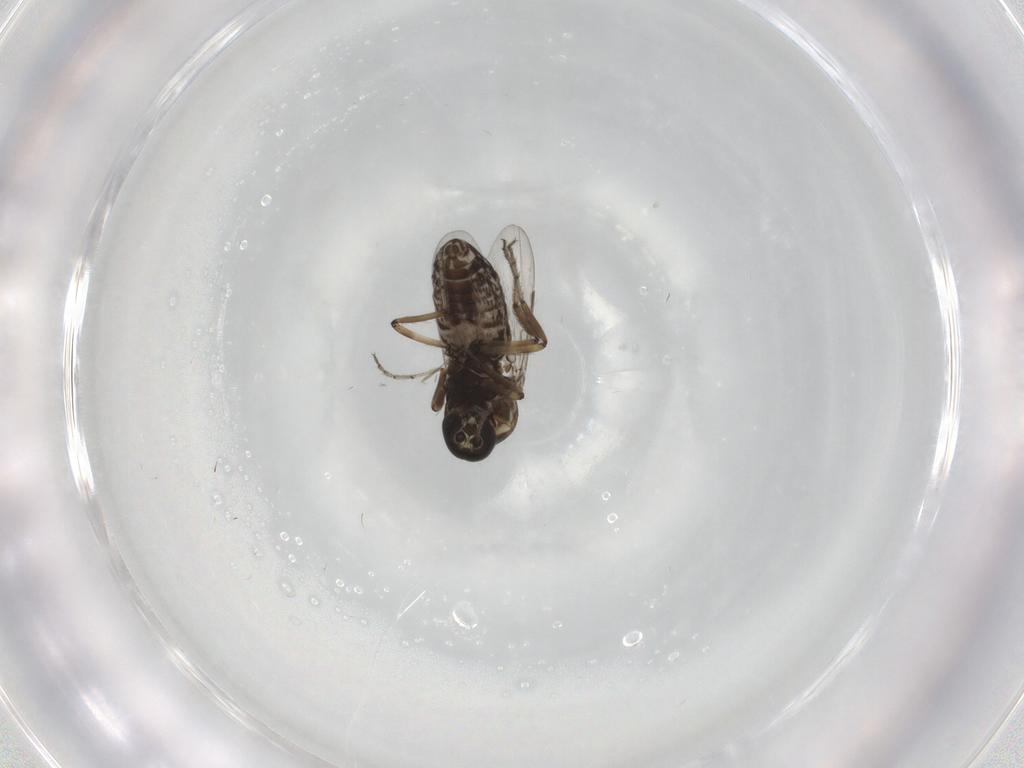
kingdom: Animalia
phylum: Arthropoda
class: Insecta
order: Diptera
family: Ceratopogonidae
